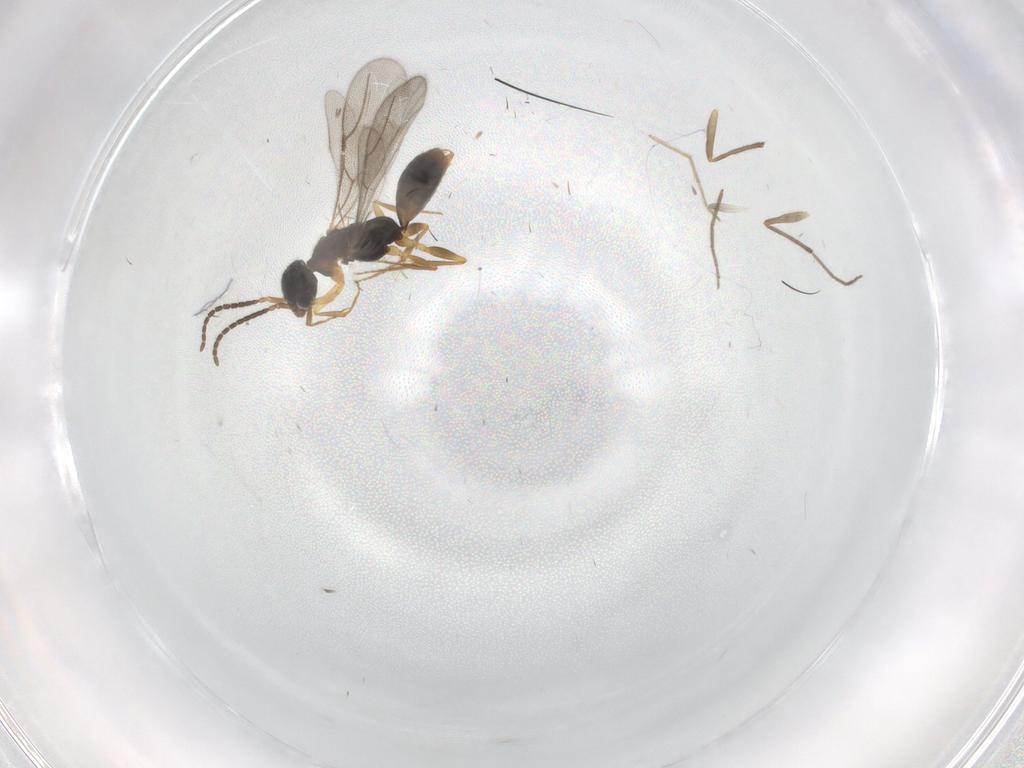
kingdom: Animalia
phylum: Arthropoda
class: Insecta
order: Hymenoptera
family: Bethylidae
